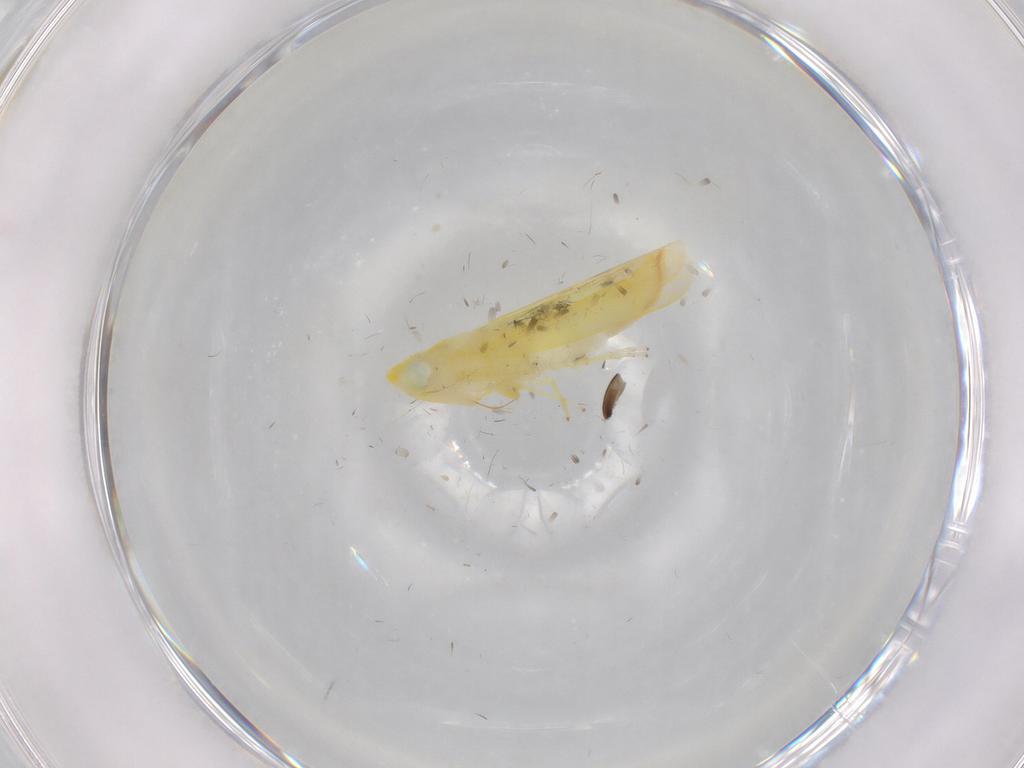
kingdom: Animalia
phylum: Arthropoda
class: Insecta
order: Hemiptera
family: Cicadellidae
